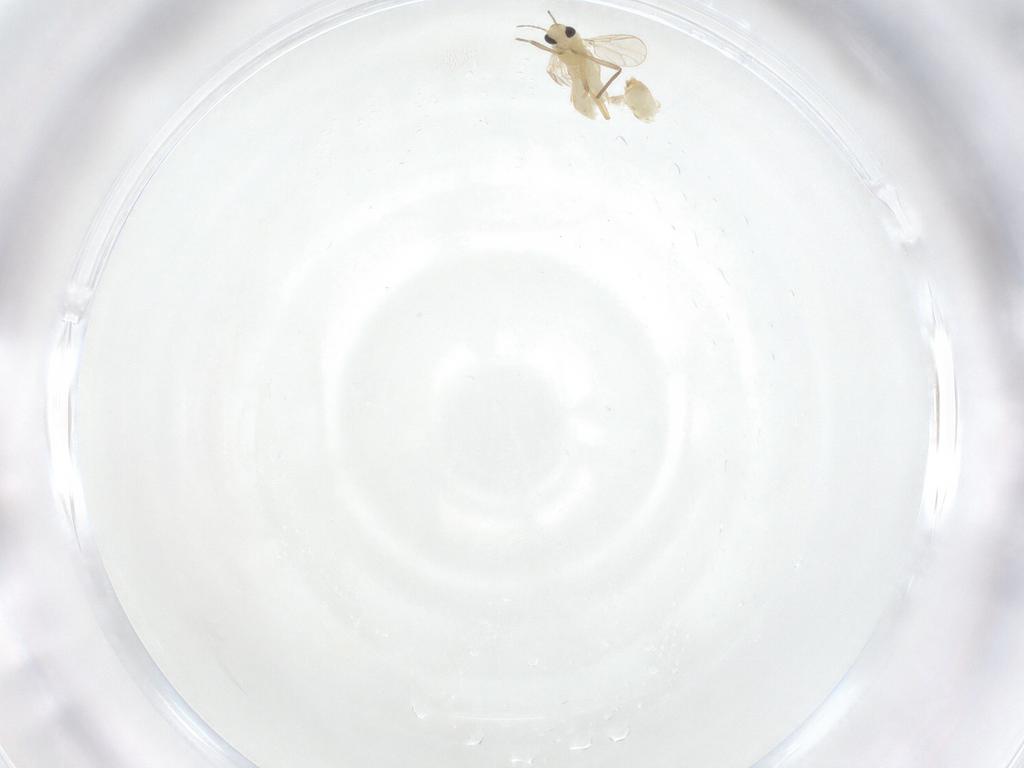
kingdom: Animalia
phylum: Arthropoda
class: Insecta
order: Diptera
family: Chironomidae
